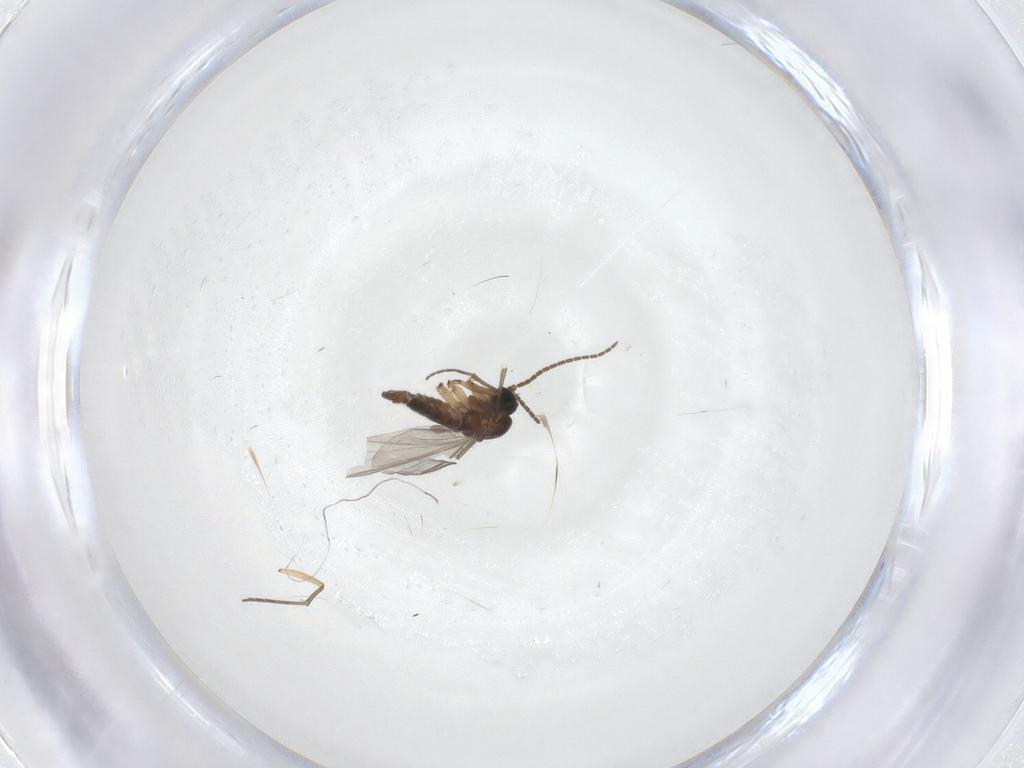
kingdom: Animalia
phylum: Arthropoda
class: Insecta
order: Diptera
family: Sciaridae
